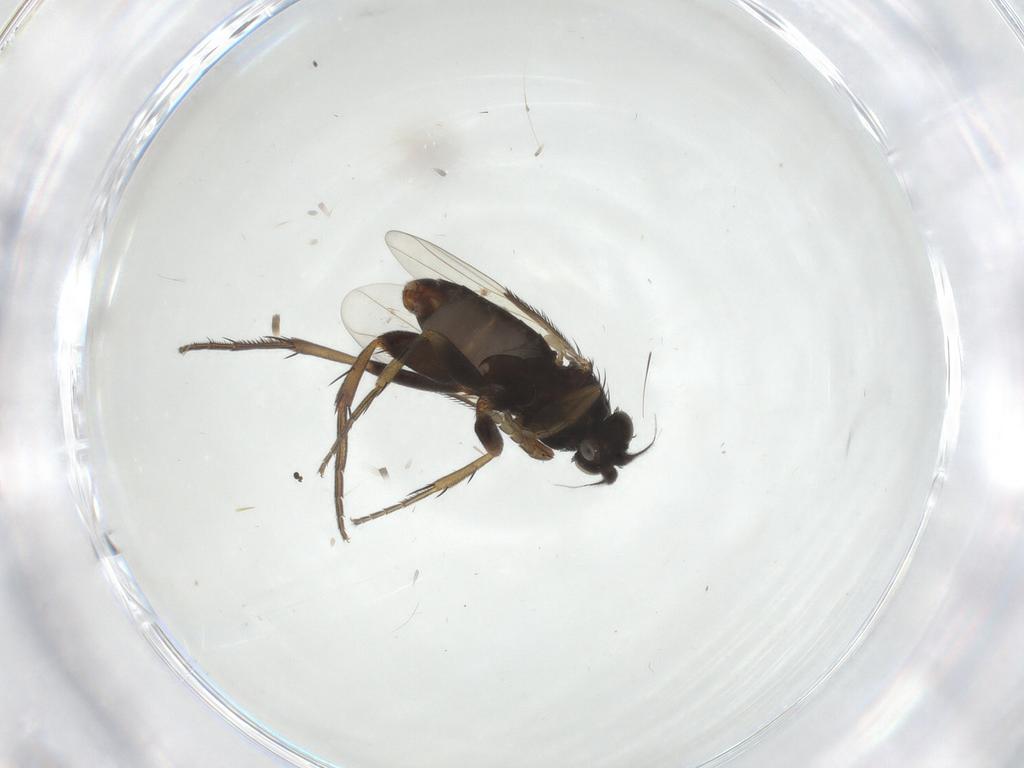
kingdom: Animalia
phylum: Arthropoda
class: Insecta
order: Diptera
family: Phoridae
